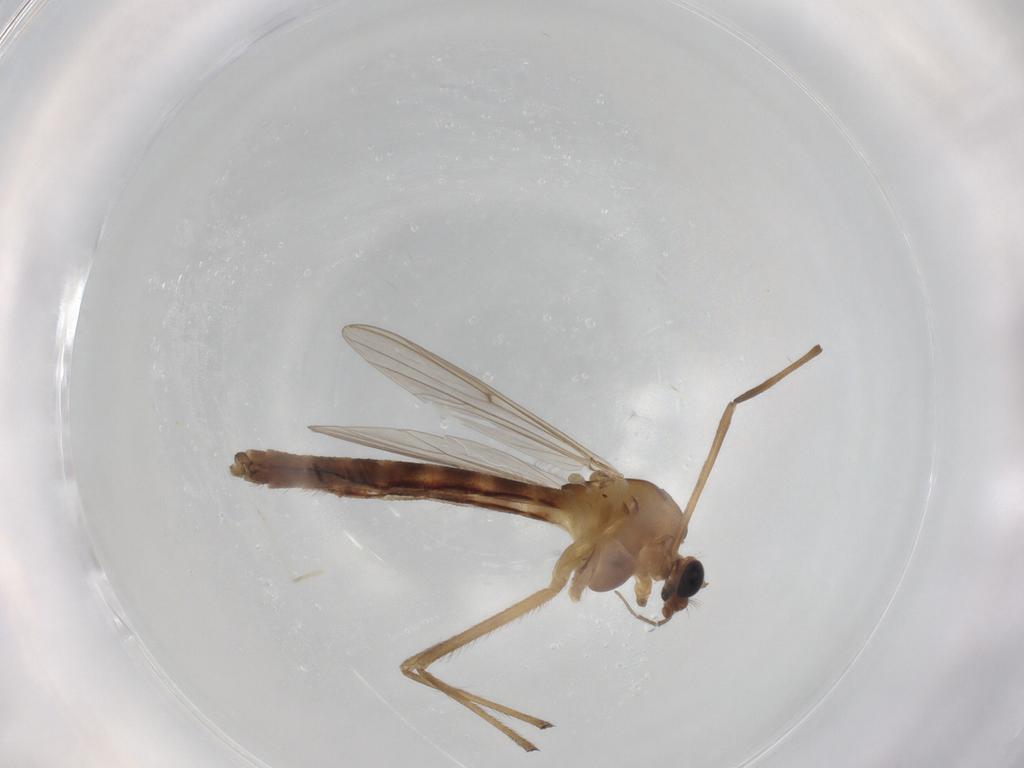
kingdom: Animalia
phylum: Arthropoda
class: Insecta
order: Diptera
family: Chironomidae
